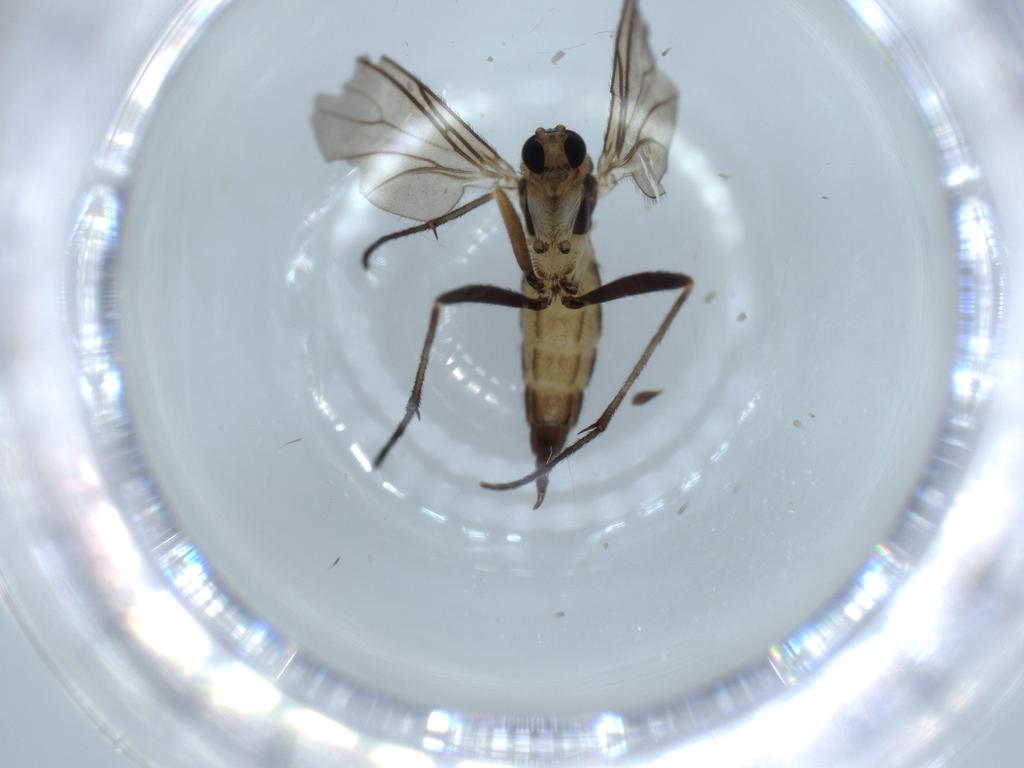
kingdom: Animalia
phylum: Arthropoda
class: Insecta
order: Diptera
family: Sciaridae
